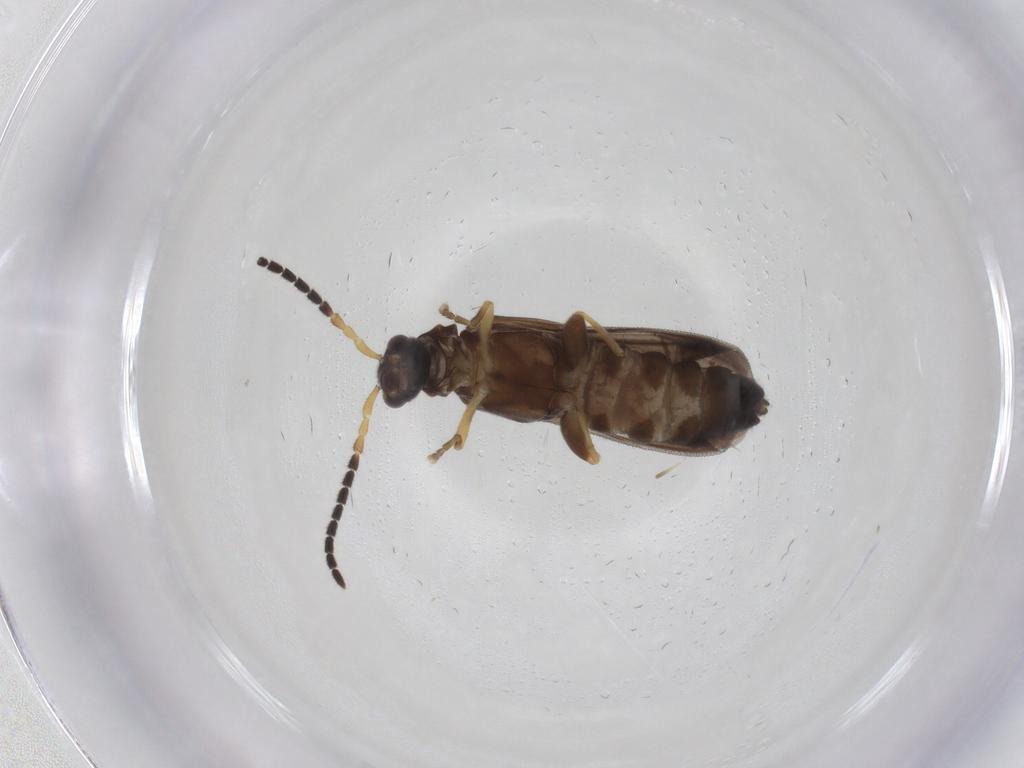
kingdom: Animalia
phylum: Arthropoda
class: Insecta
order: Coleoptera
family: Cantharidae
